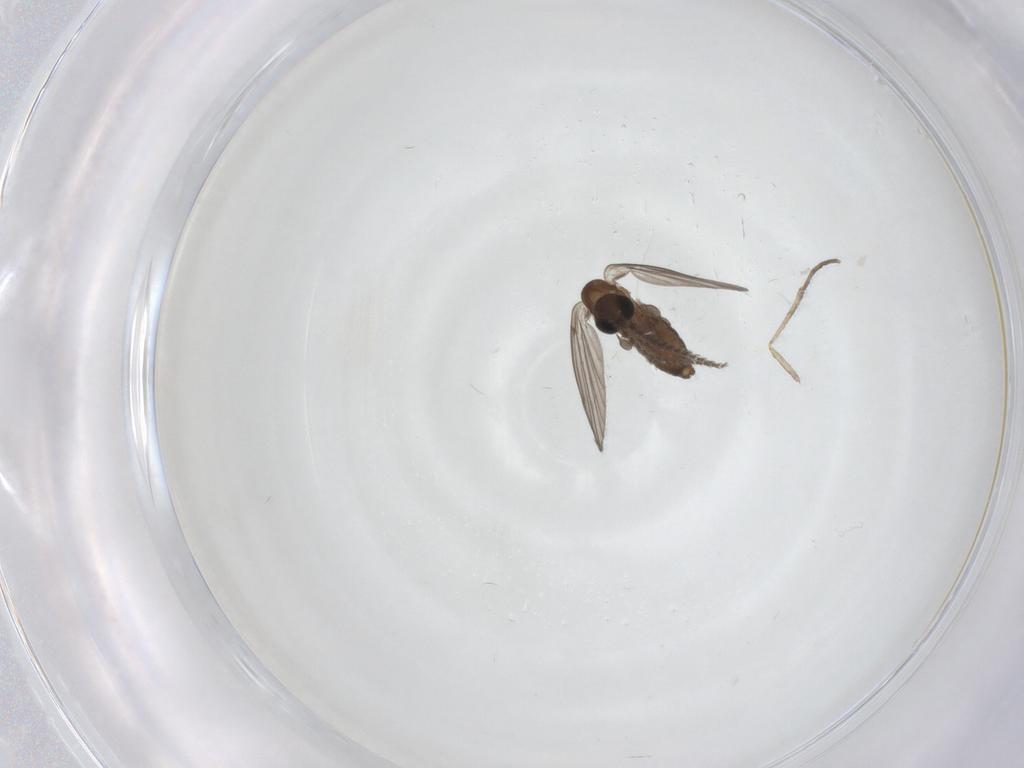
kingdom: Animalia
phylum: Arthropoda
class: Insecta
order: Diptera
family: Psychodidae
